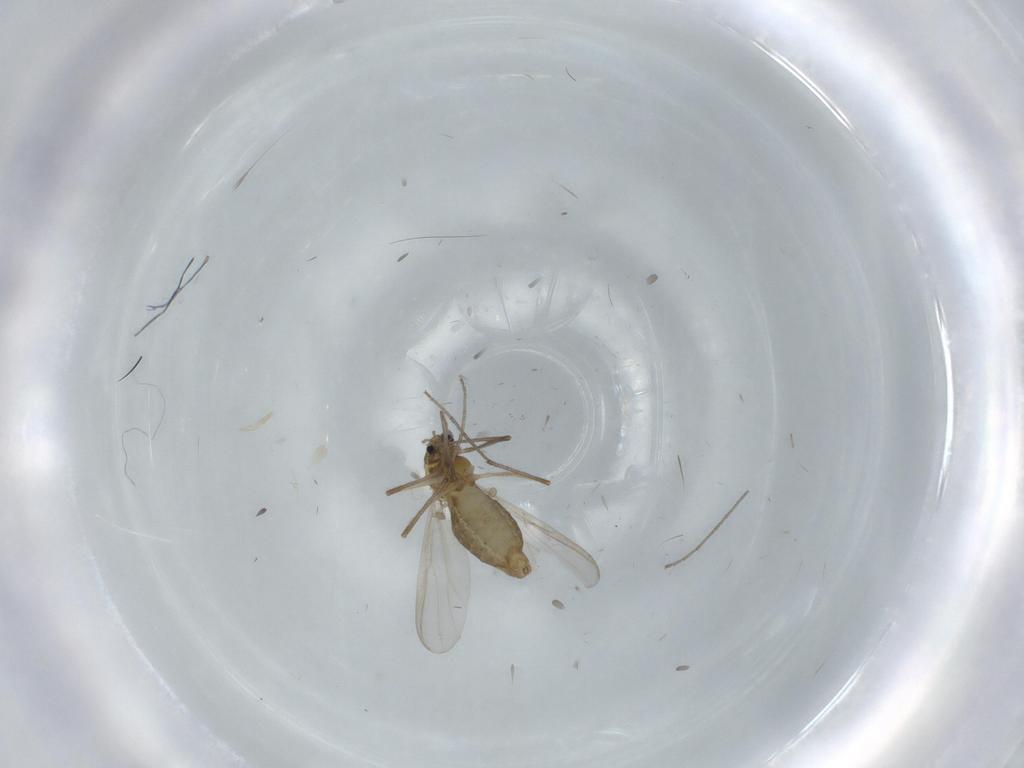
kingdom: Animalia
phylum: Arthropoda
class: Insecta
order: Diptera
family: Chironomidae
